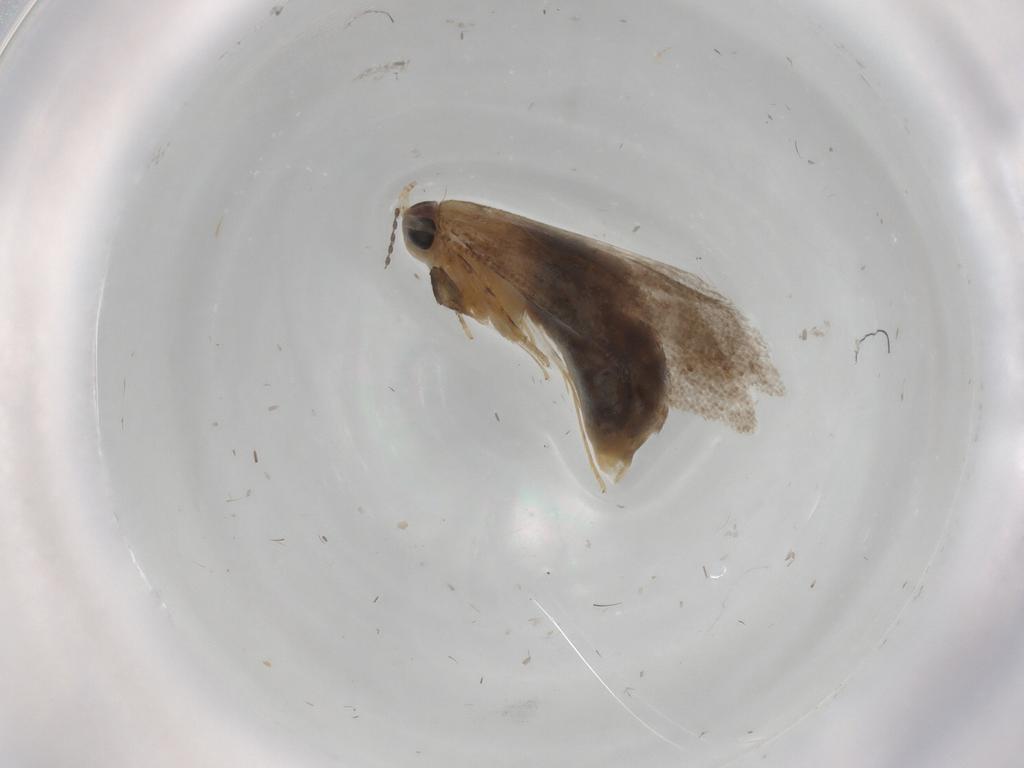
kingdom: Animalia
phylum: Arthropoda
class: Insecta
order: Lepidoptera
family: Nepticulidae
